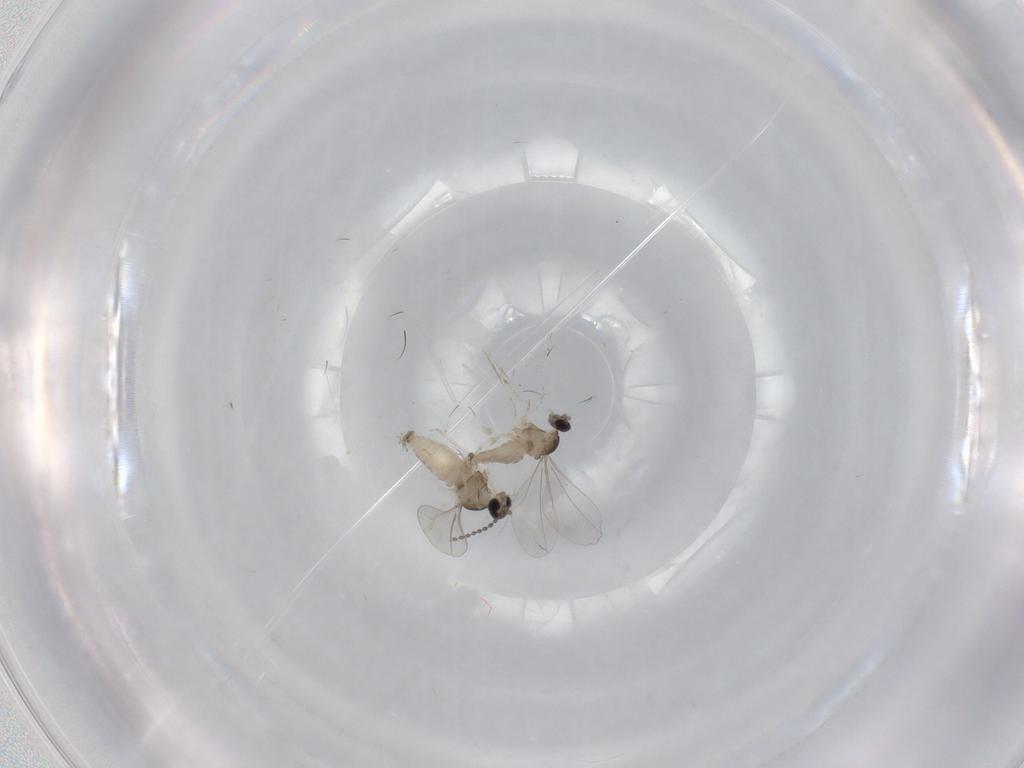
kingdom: Animalia
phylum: Arthropoda
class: Insecta
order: Diptera
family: Cecidomyiidae
